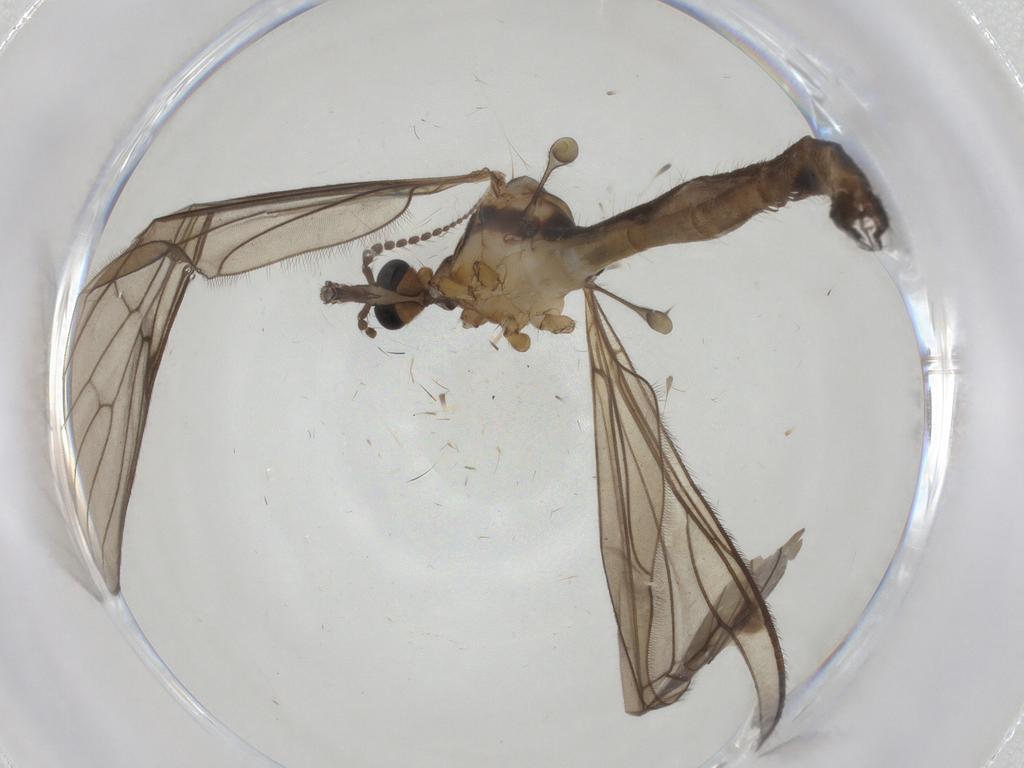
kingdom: Animalia
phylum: Arthropoda
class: Insecta
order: Diptera
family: Limoniidae
